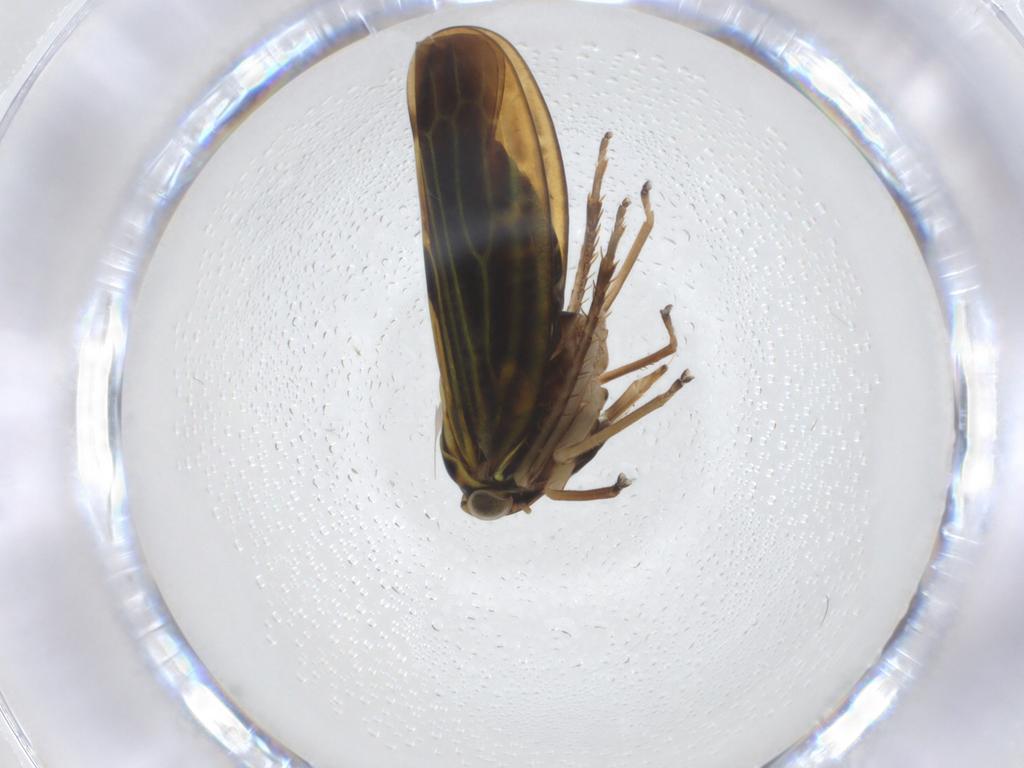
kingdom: Animalia
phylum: Arthropoda
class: Insecta
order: Hemiptera
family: Cicadellidae
